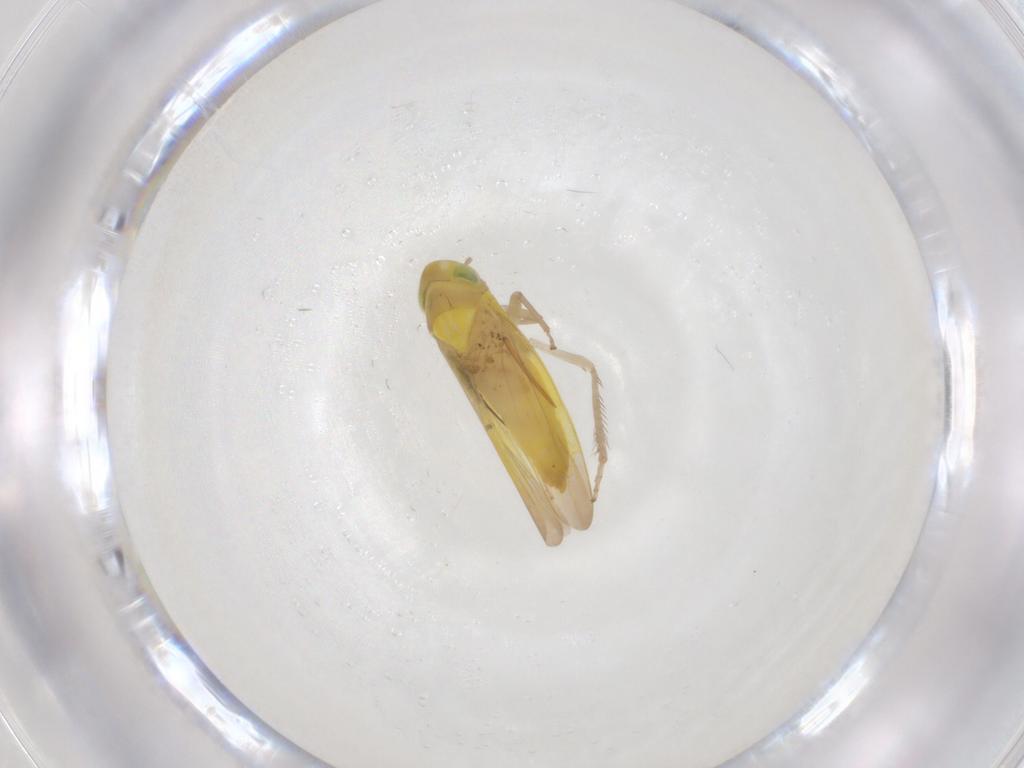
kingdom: Animalia
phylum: Arthropoda
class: Collembola
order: Entomobryomorpha
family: Entomobryidae
